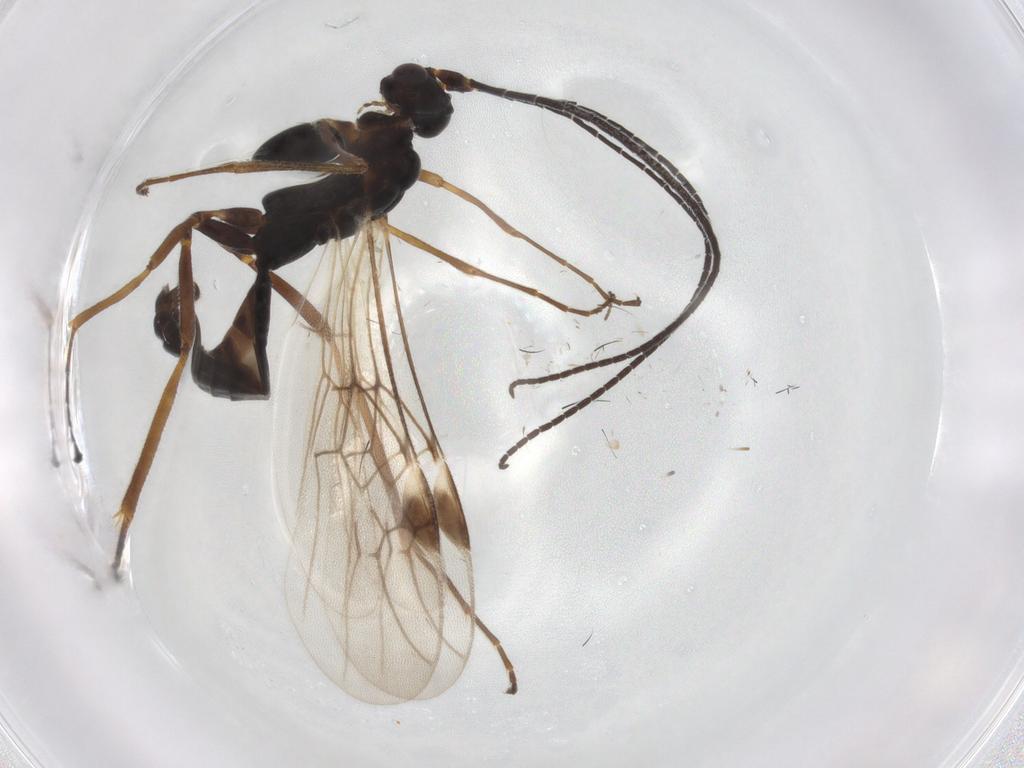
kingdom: Animalia
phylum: Arthropoda
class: Insecta
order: Hymenoptera
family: Braconidae
